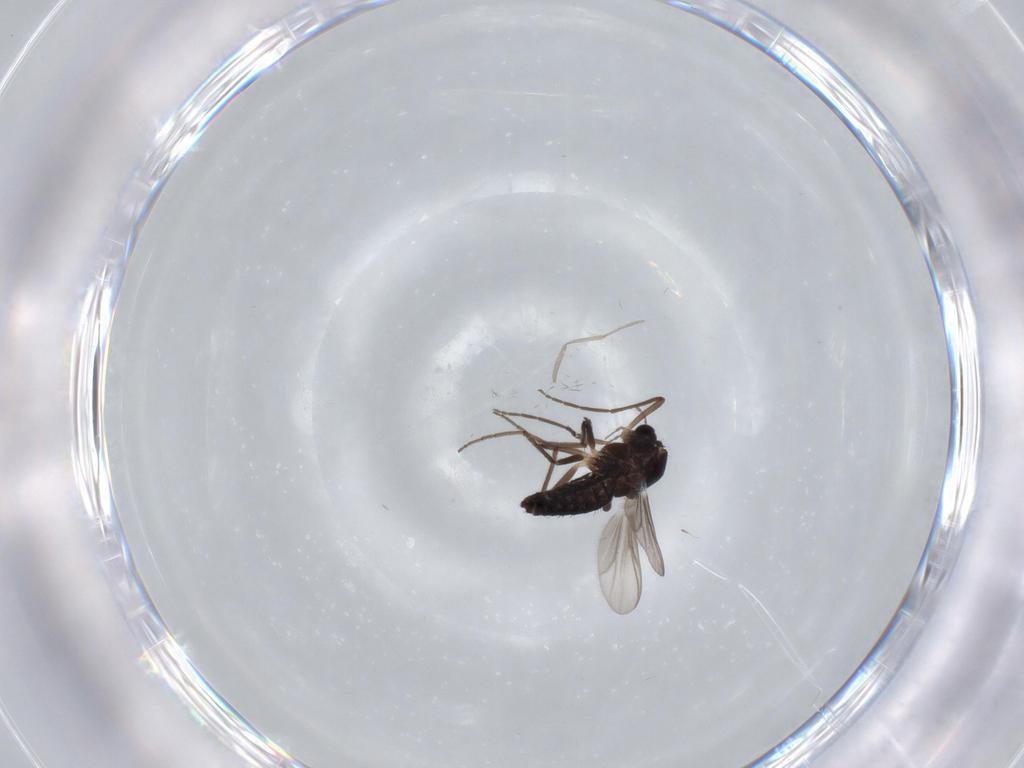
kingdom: Animalia
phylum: Arthropoda
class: Insecta
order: Diptera
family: Chironomidae
